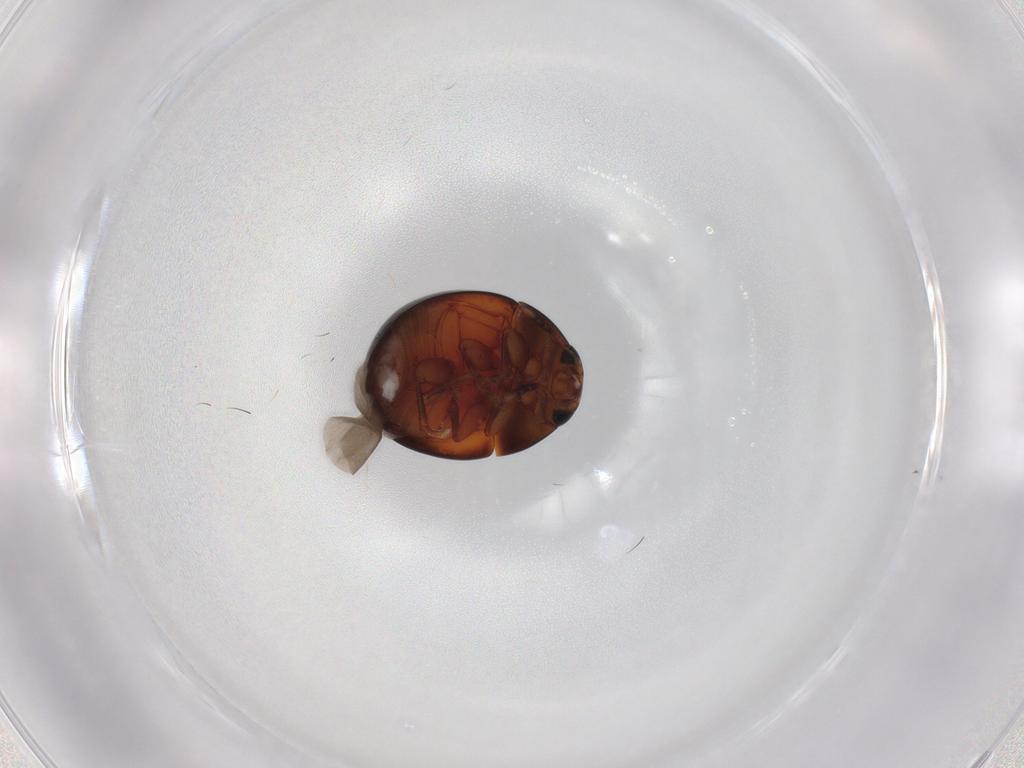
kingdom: Animalia
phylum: Arthropoda
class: Insecta
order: Coleoptera
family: Phalacridae
